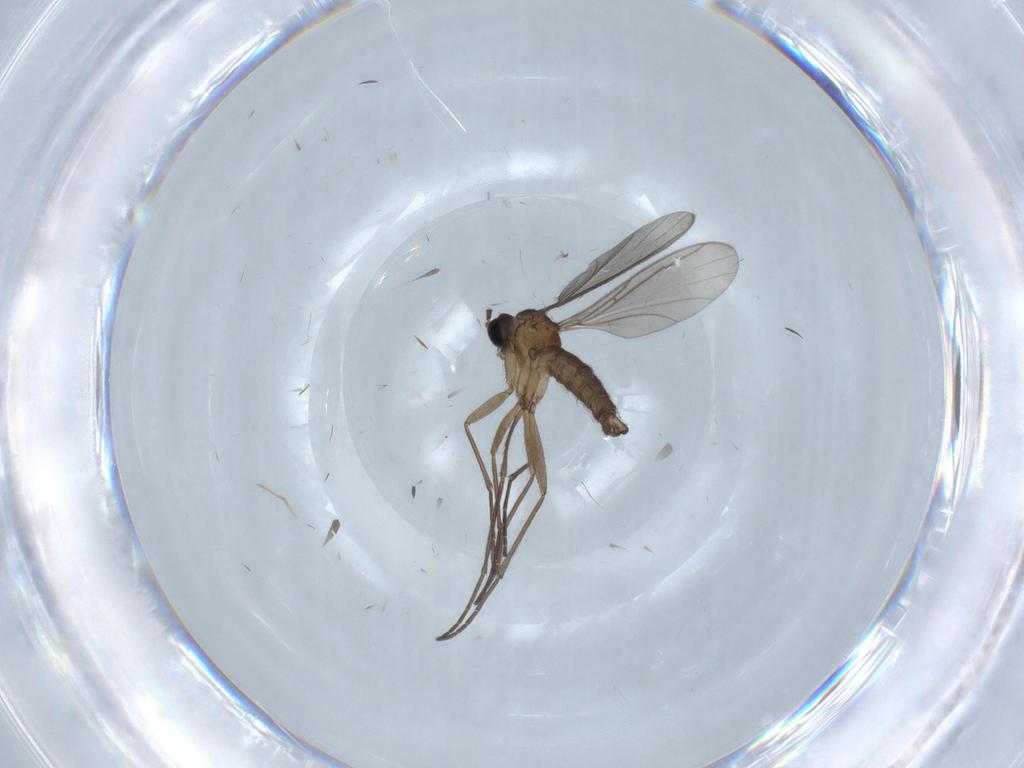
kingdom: Animalia
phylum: Arthropoda
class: Insecta
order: Diptera
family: Sciaridae
